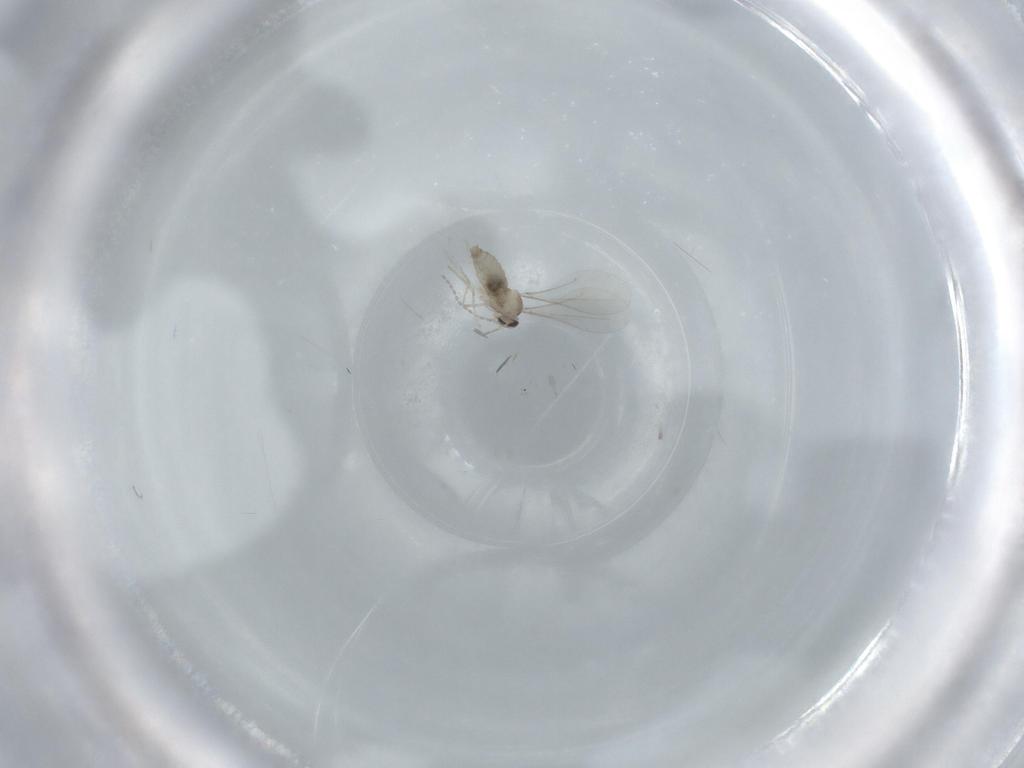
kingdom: Animalia
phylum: Arthropoda
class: Insecta
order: Diptera
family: Cecidomyiidae
